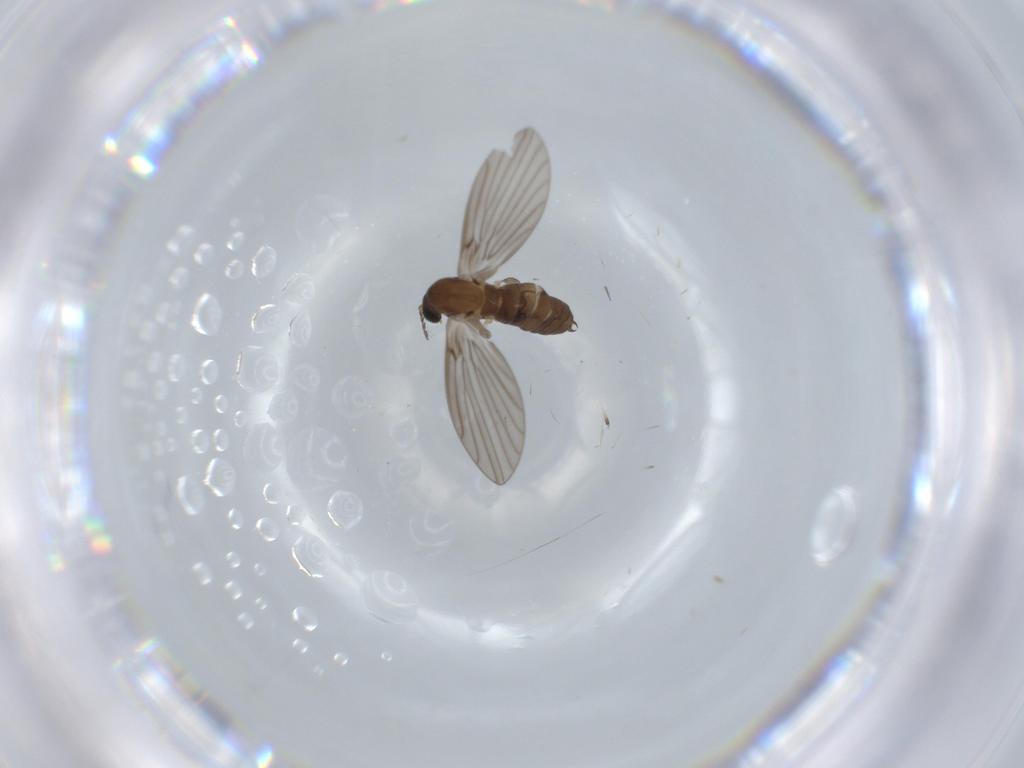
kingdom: Animalia
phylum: Arthropoda
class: Insecta
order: Diptera
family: Psychodidae
